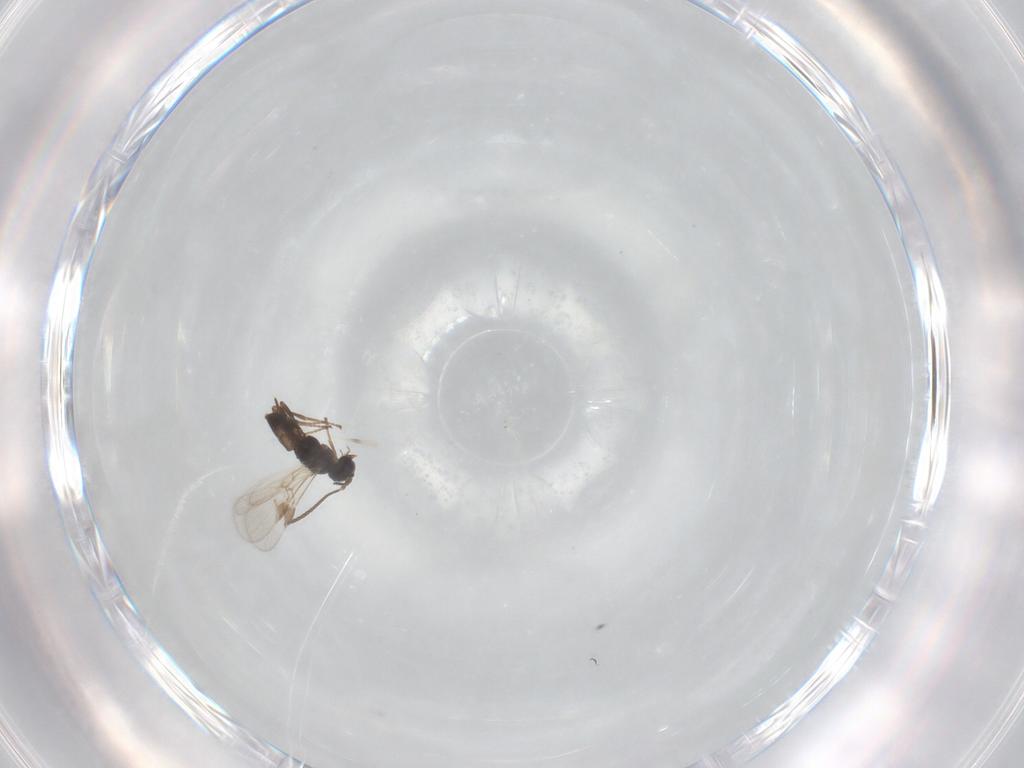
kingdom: Animalia
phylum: Arthropoda
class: Insecta
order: Hymenoptera
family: Braconidae
